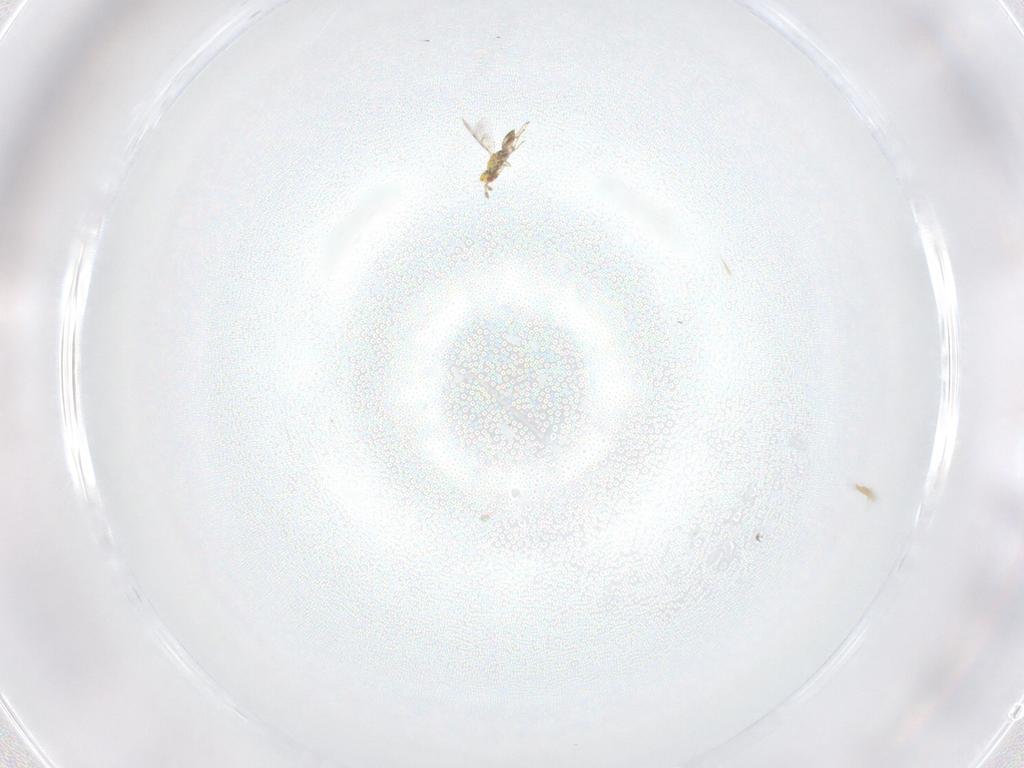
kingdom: Animalia
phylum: Arthropoda
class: Insecta
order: Hymenoptera
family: Eulophidae
